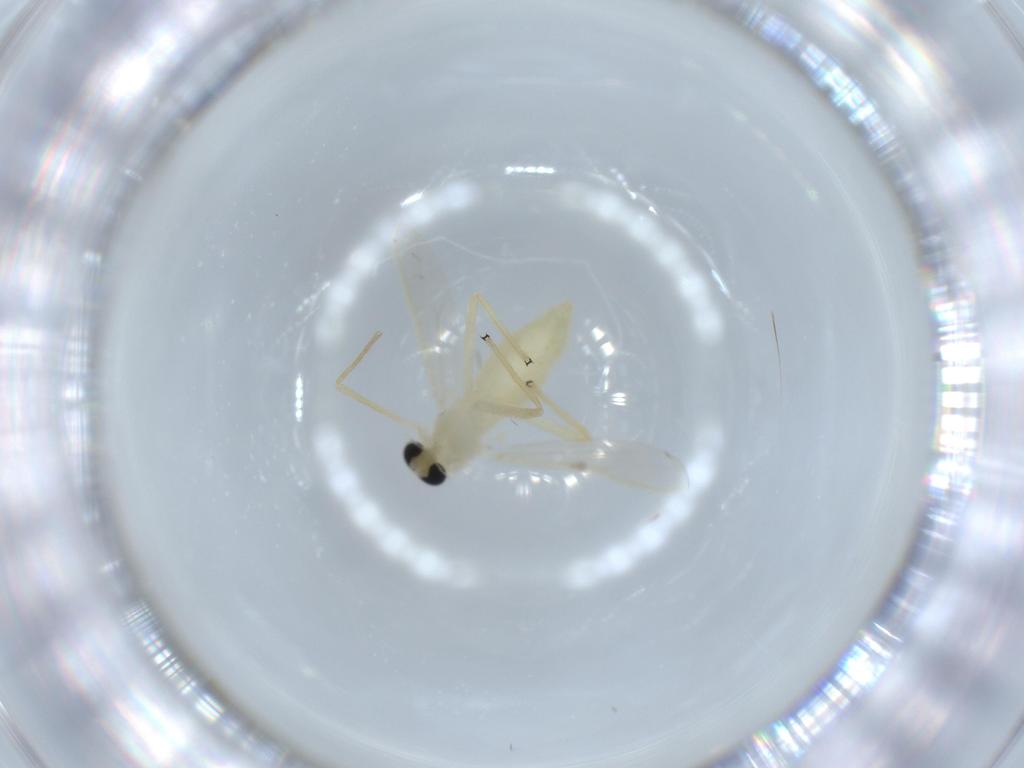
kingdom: Animalia
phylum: Arthropoda
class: Insecta
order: Diptera
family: Chironomidae
